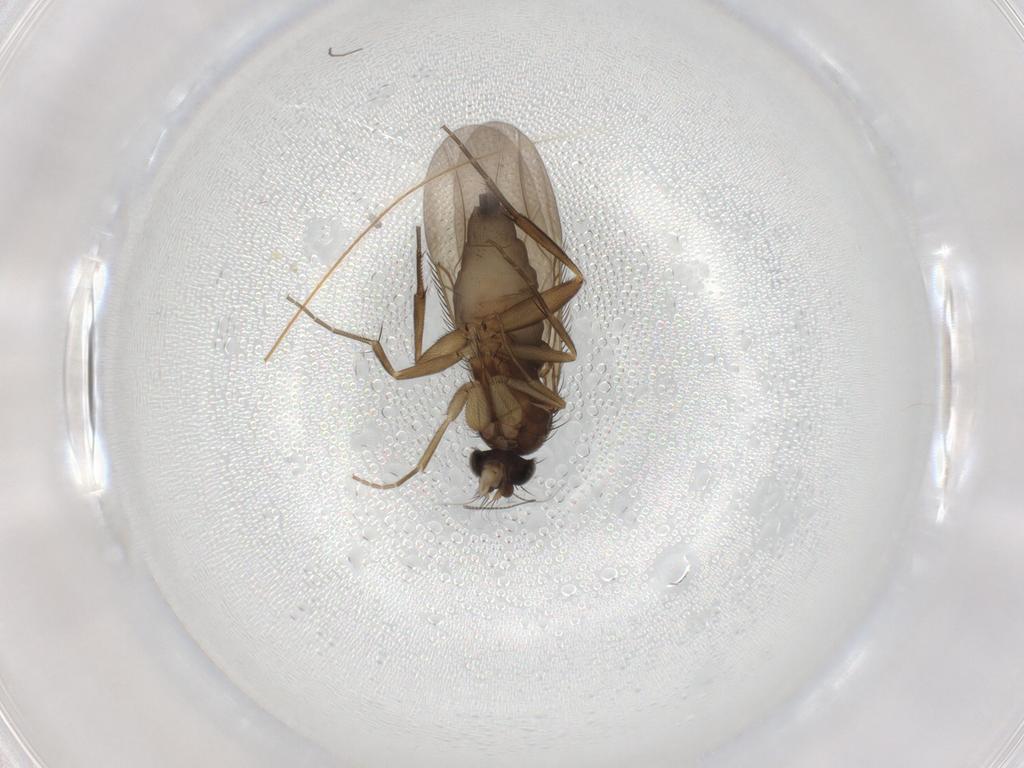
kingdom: Animalia
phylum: Arthropoda
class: Insecta
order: Diptera
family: Phoridae
